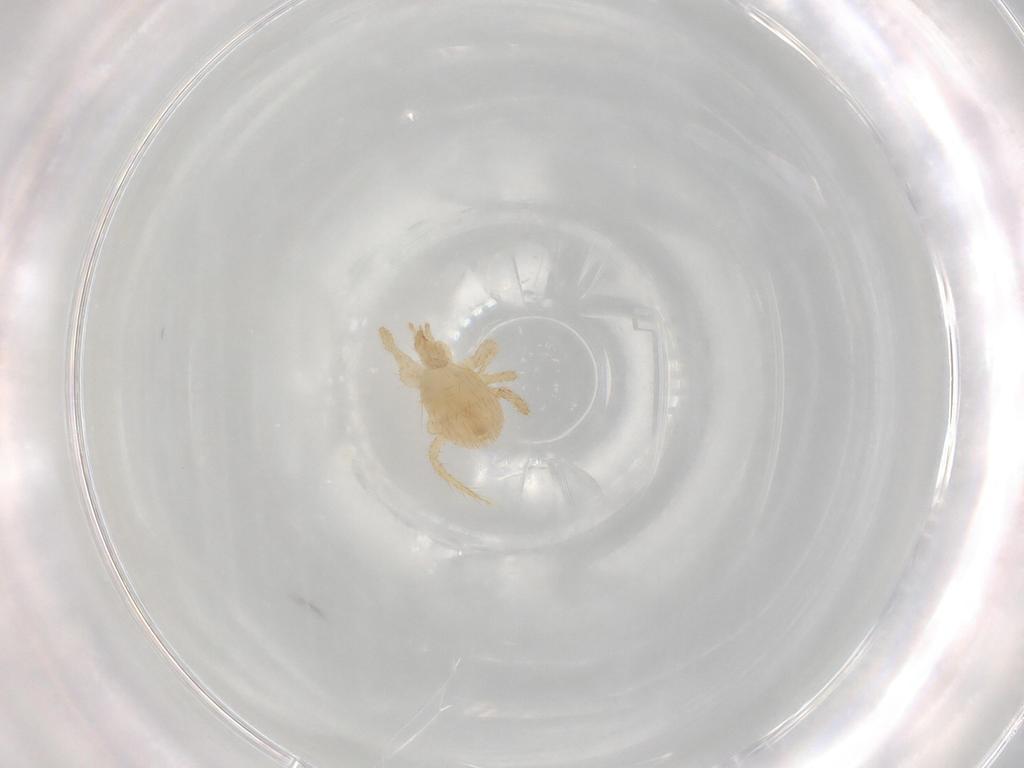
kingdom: Animalia
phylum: Arthropoda
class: Arachnida
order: Mesostigmata
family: Parasitidae
